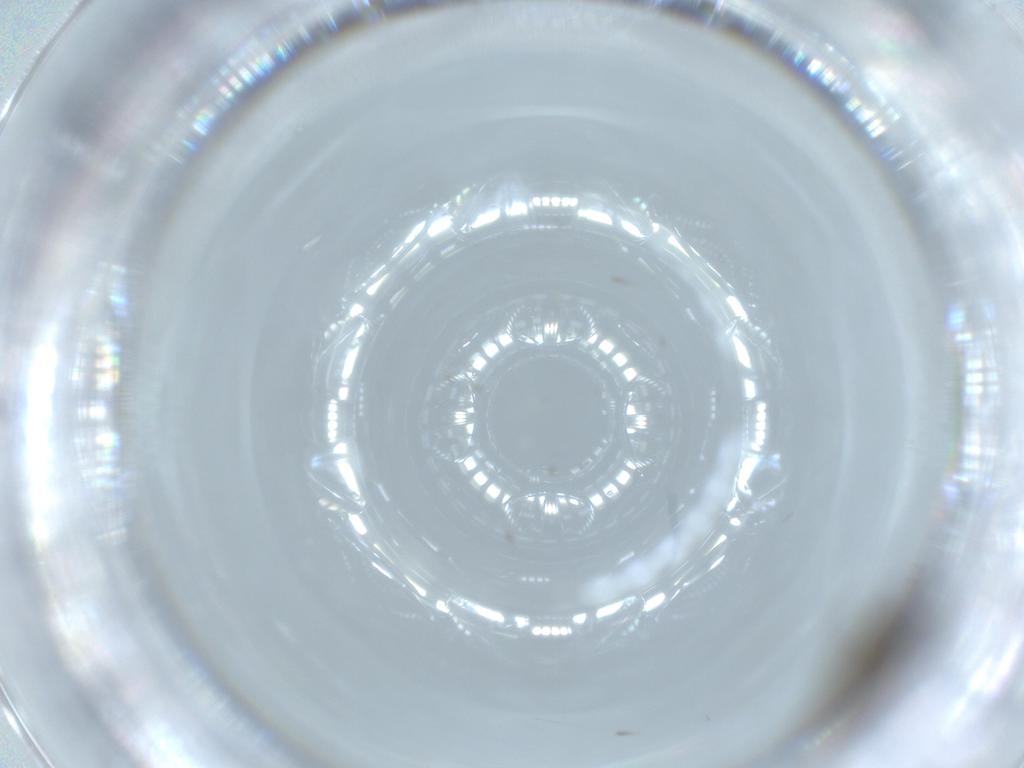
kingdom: Animalia
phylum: Arthropoda
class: Insecta
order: Diptera
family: Sciaridae
